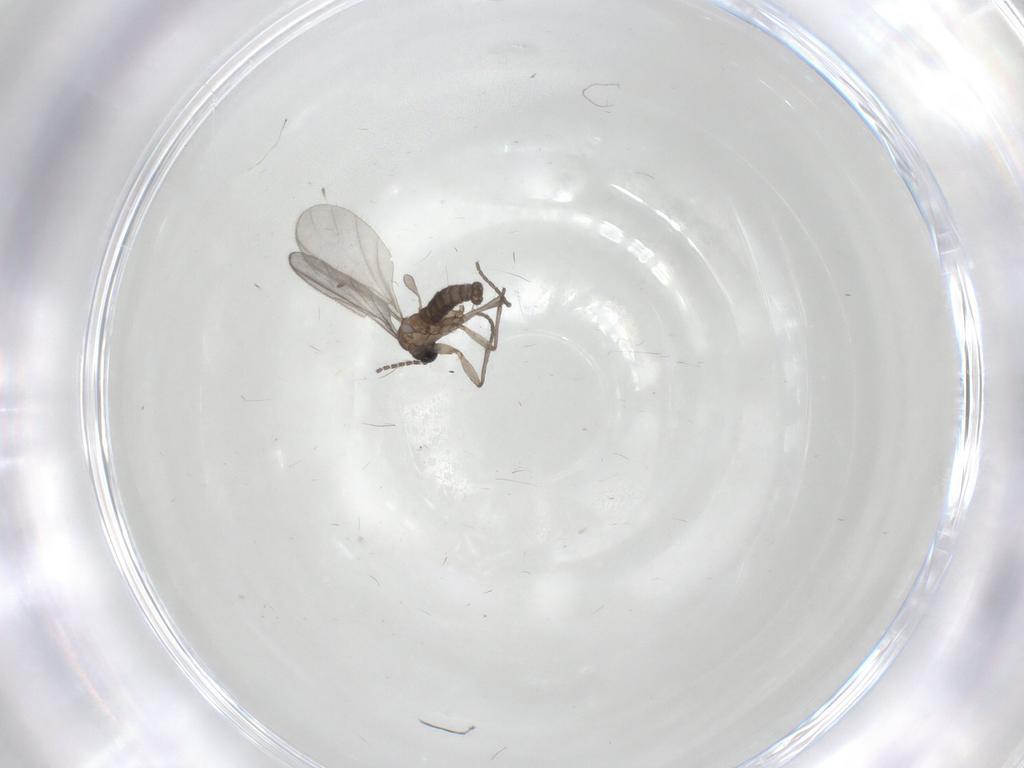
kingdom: Animalia
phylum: Arthropoda
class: Insecta
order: Diptera
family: Sciaridae
